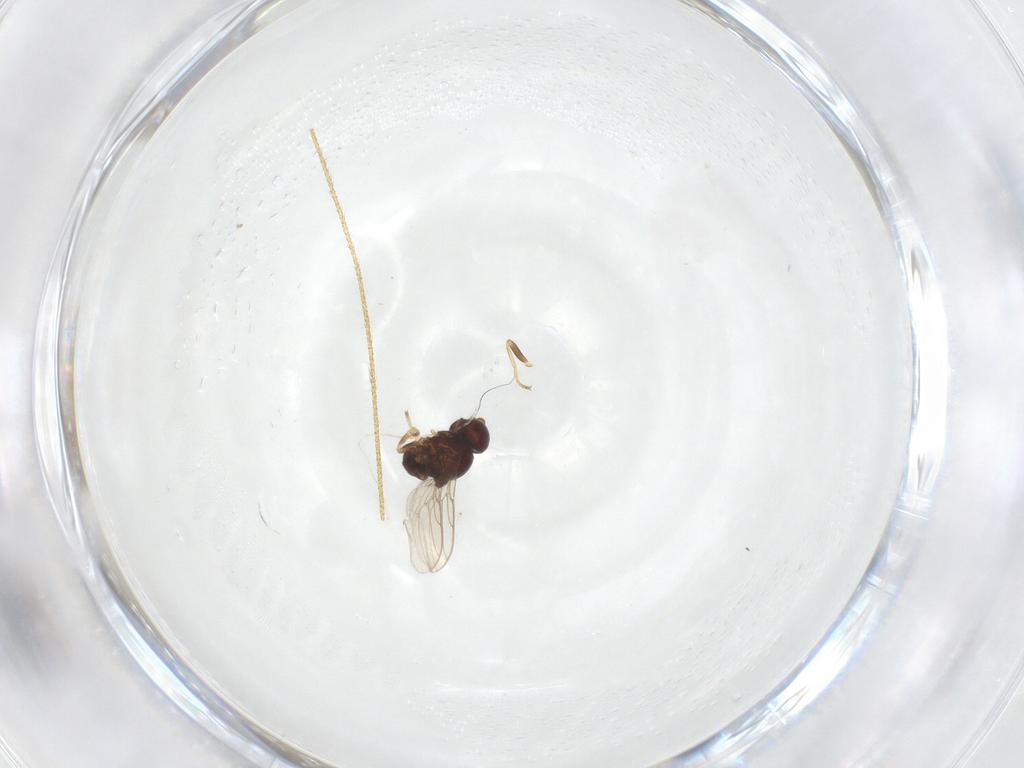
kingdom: Animalia
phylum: Arthropoda
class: Insecta
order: Diptera
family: Chloropidae
